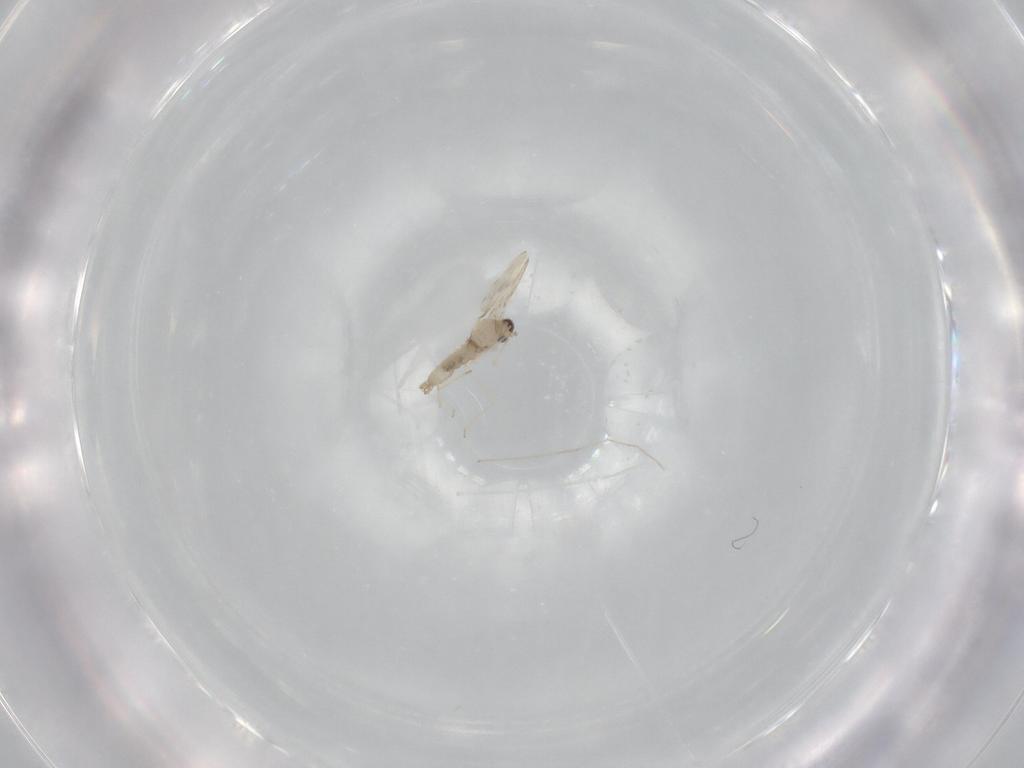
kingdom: Animalia
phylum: Arthropoda
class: Insecta
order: Diptera
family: Cecidomyiidae
